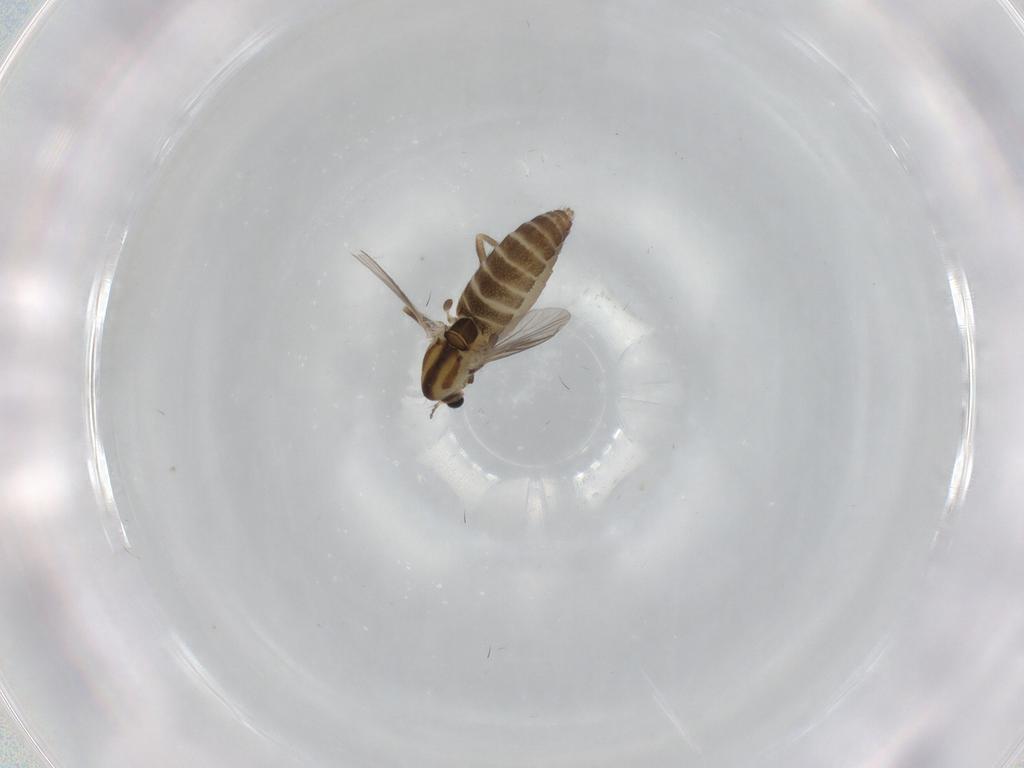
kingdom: Animalia
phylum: Arthropoda
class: Insecta
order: Diptera
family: Chironomidae
